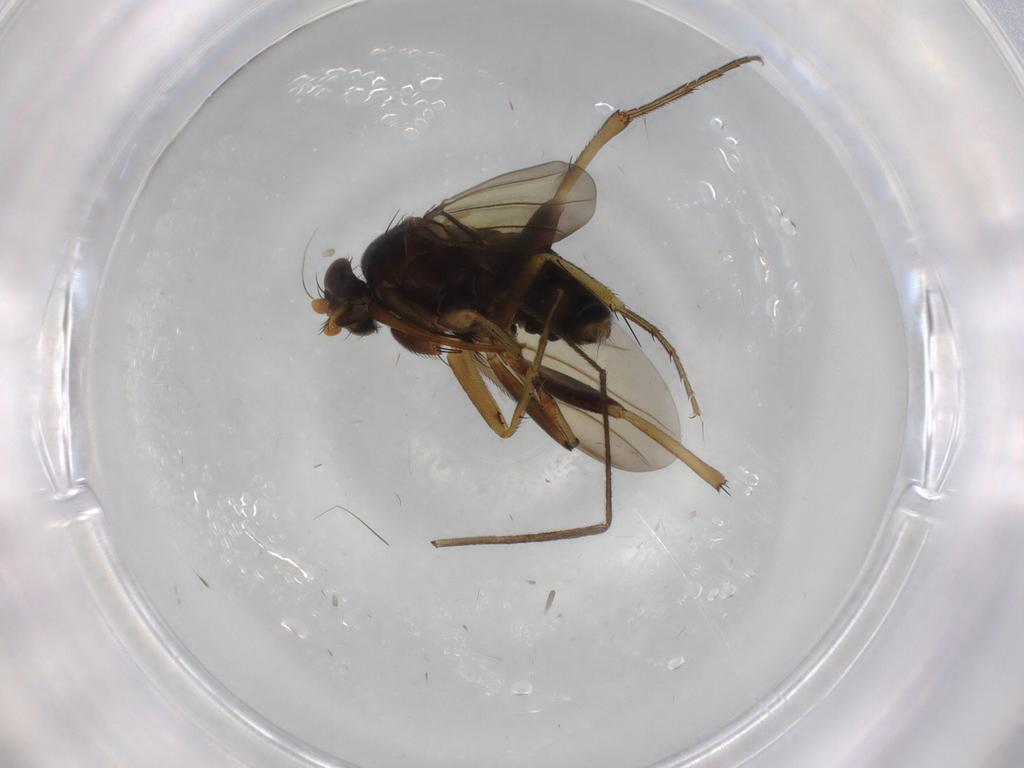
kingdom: Animalia
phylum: Arthropoda
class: Insecta
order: Diptera
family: Phoridae
